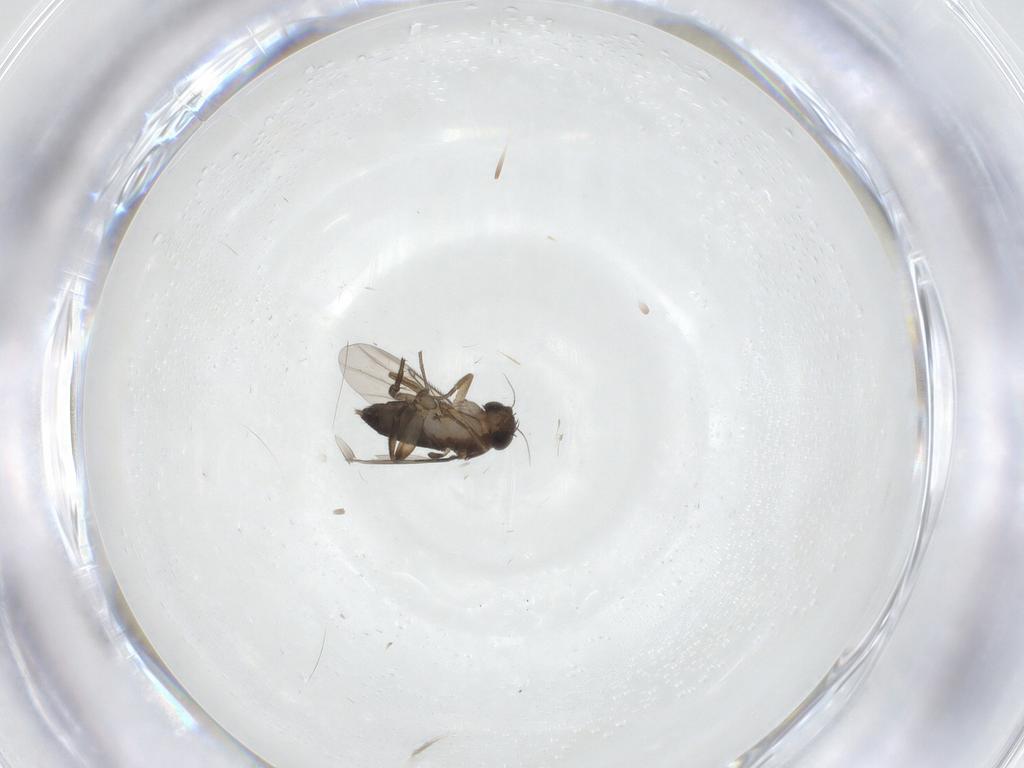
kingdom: Animalia
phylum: Arthropoda
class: Insecta
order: Diptera
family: Phoridae
